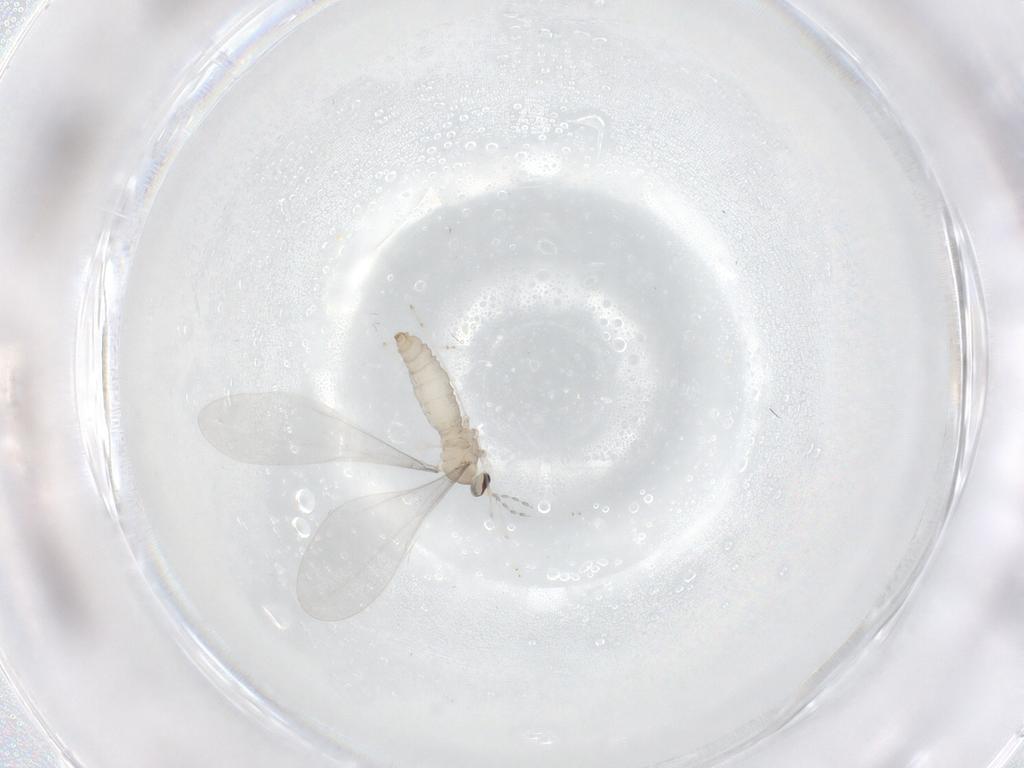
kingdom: Animalia
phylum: Arthropoda
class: Insecta
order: Diptera
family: Cecidomyiidae
